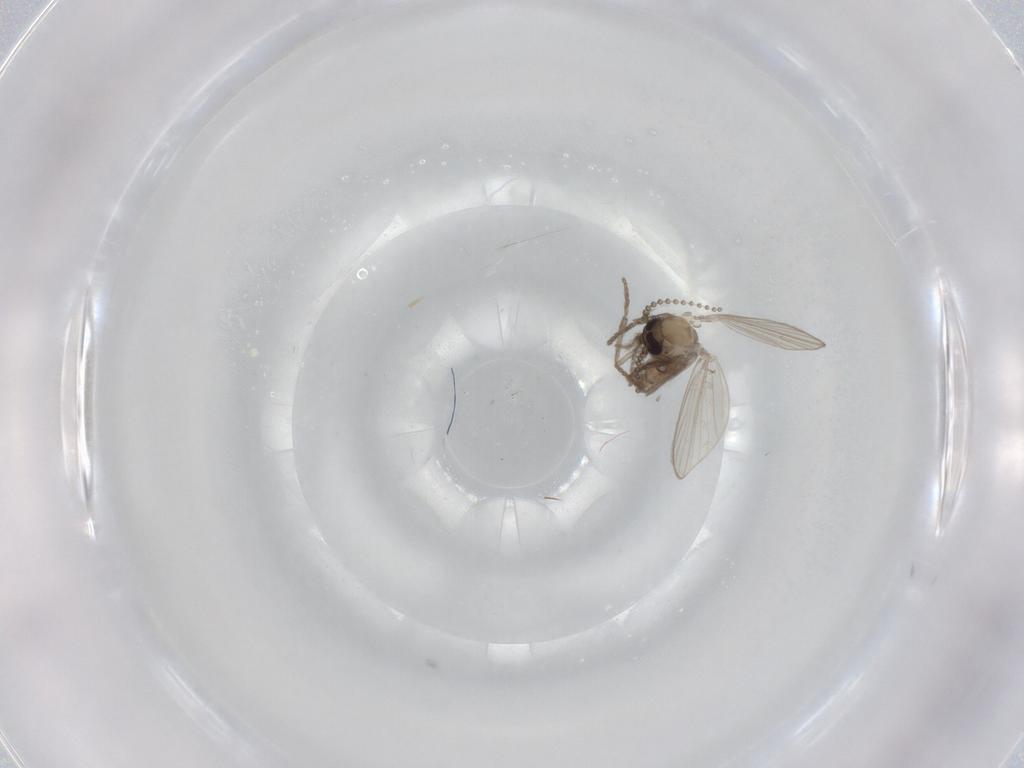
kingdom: Animalia
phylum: Arthropoda
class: Insecta
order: Diptera
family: Psychodidae
